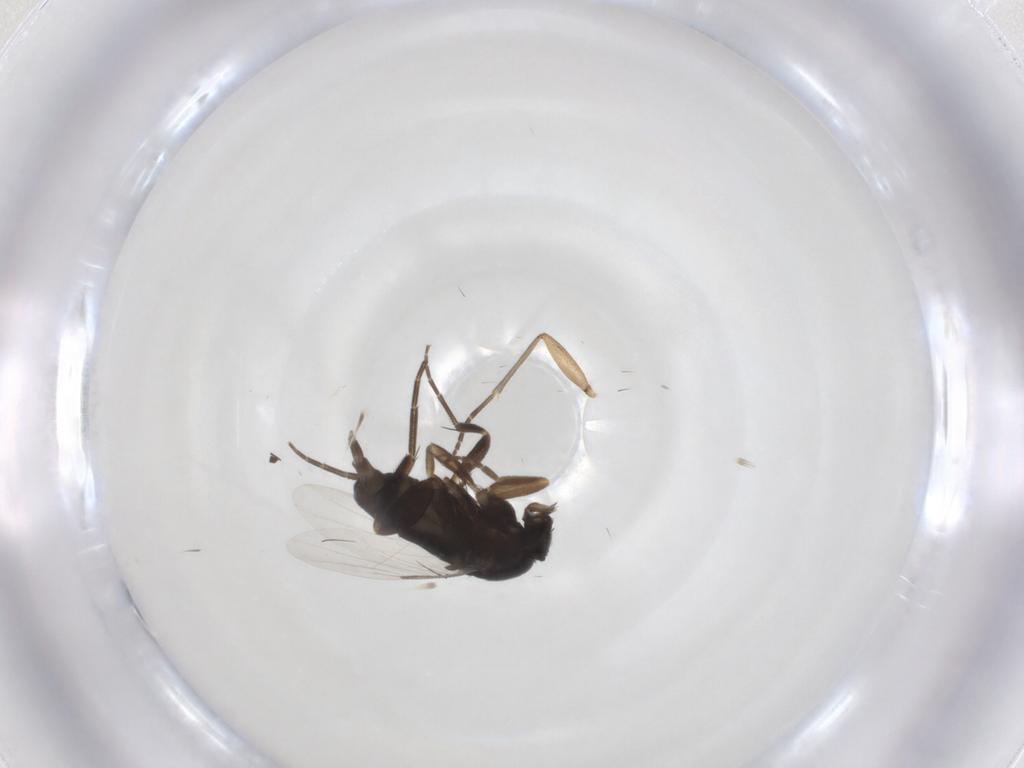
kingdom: Animalia
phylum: Arthropoda
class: Insecta
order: Diptera
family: Phoridae
